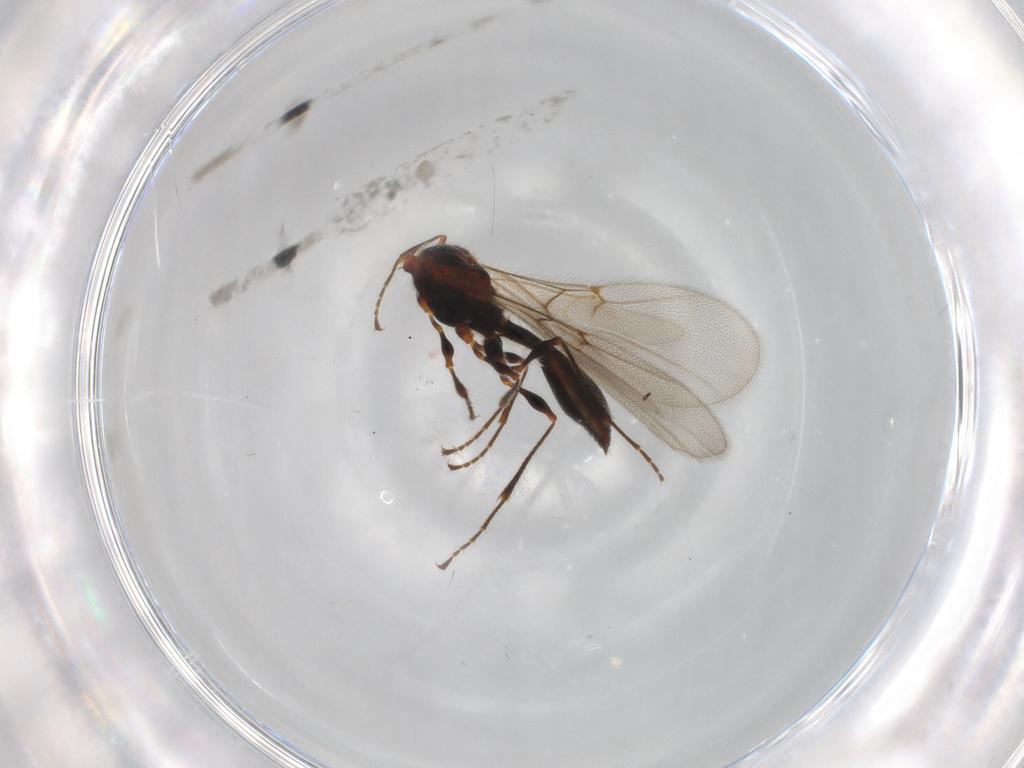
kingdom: Animalia
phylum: Arthropoda
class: Insecta
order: Hymenoptera
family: Diapriidae
